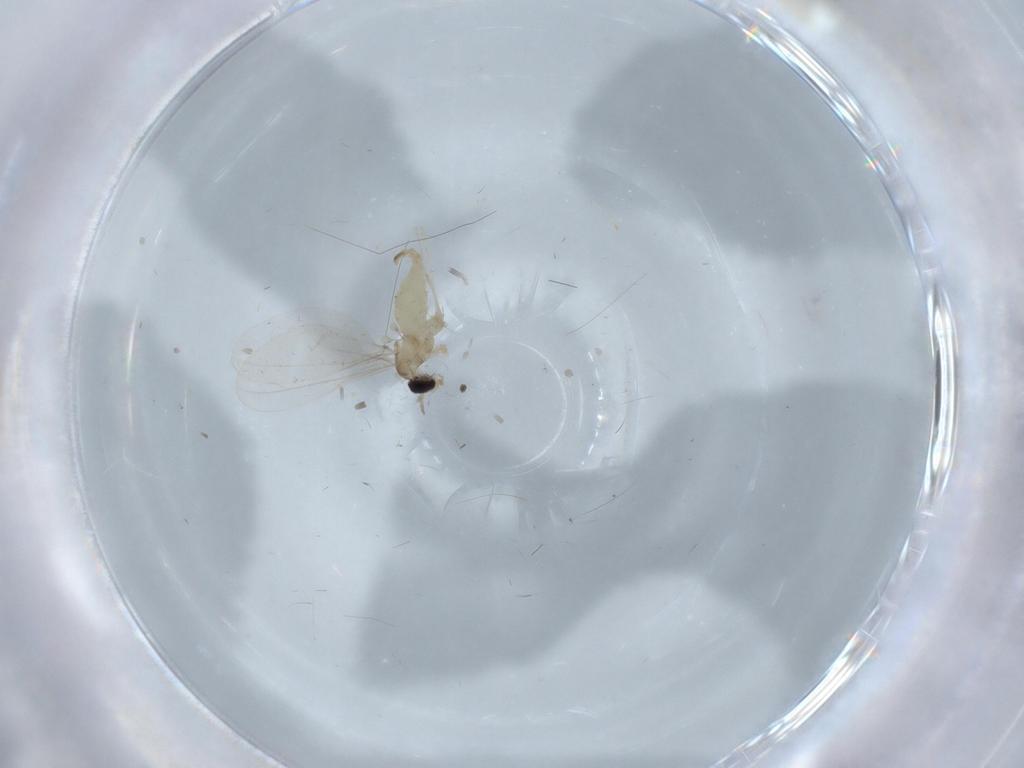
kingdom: Animalia
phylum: Arthropoda
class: Insecta
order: Diptera
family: Cecidomyiidae
